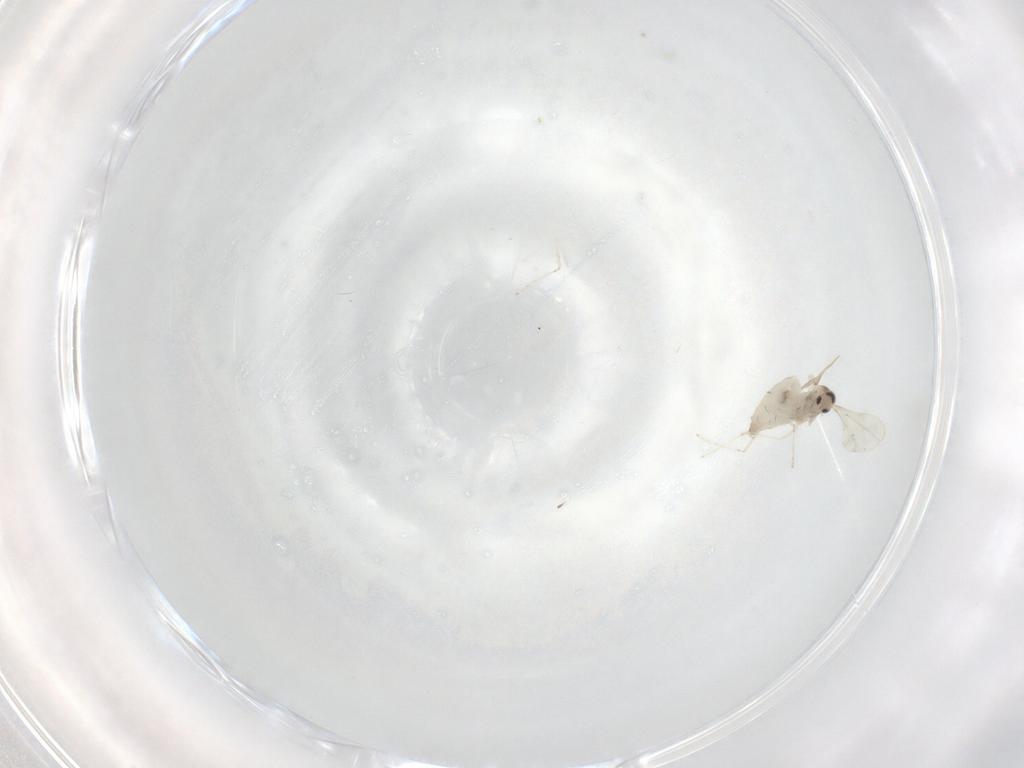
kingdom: Animalia
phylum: Arthropoda
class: Insecta
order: Diptera
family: Cecidomyiidae
